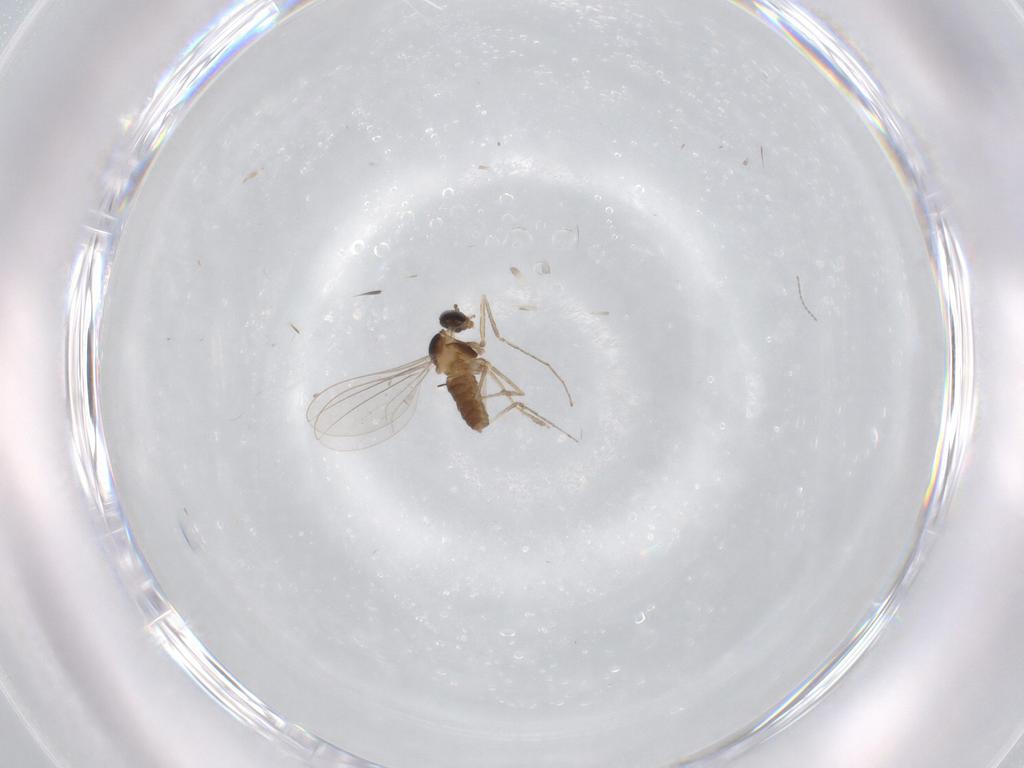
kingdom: Animalia
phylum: Arthropoda
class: Insecta
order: Diptera
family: Cecidomyiidae
